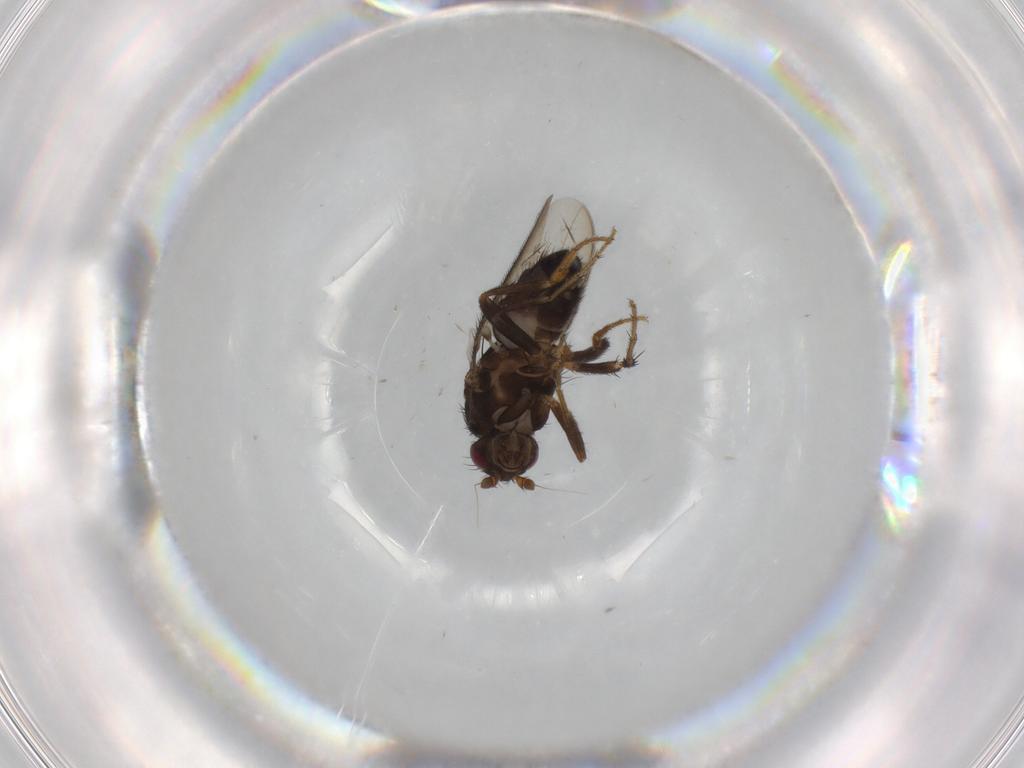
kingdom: Animalia
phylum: Arthropoda
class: Insecta
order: Diptera
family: Sphaeroceridae
